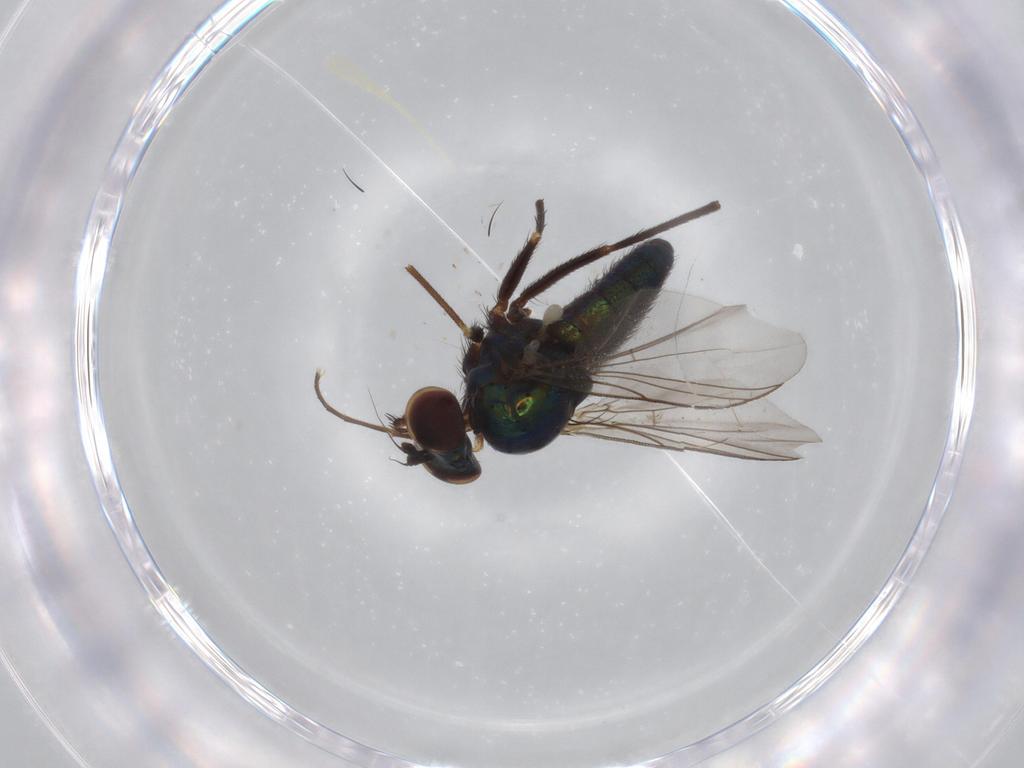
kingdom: Animalia
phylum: Arthropoda
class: Insecta
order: Diptera
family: Dolichopodidae
